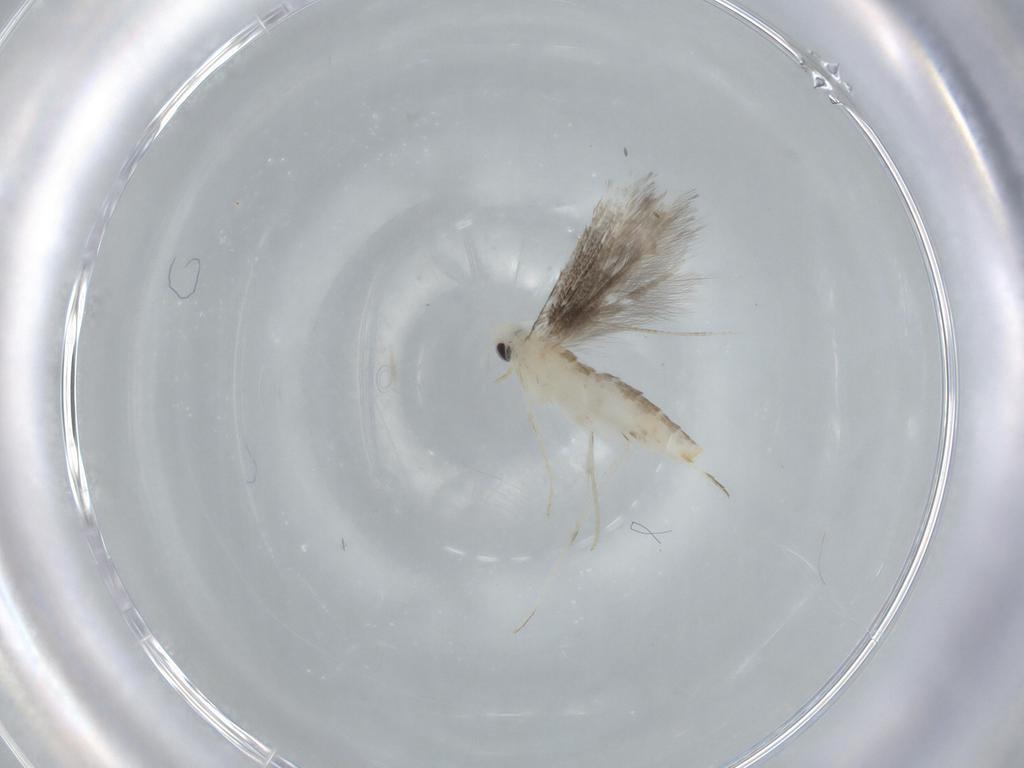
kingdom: Animalia
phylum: Arthropoda
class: Insecta
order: Lepidoptera
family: Nepticulidae
